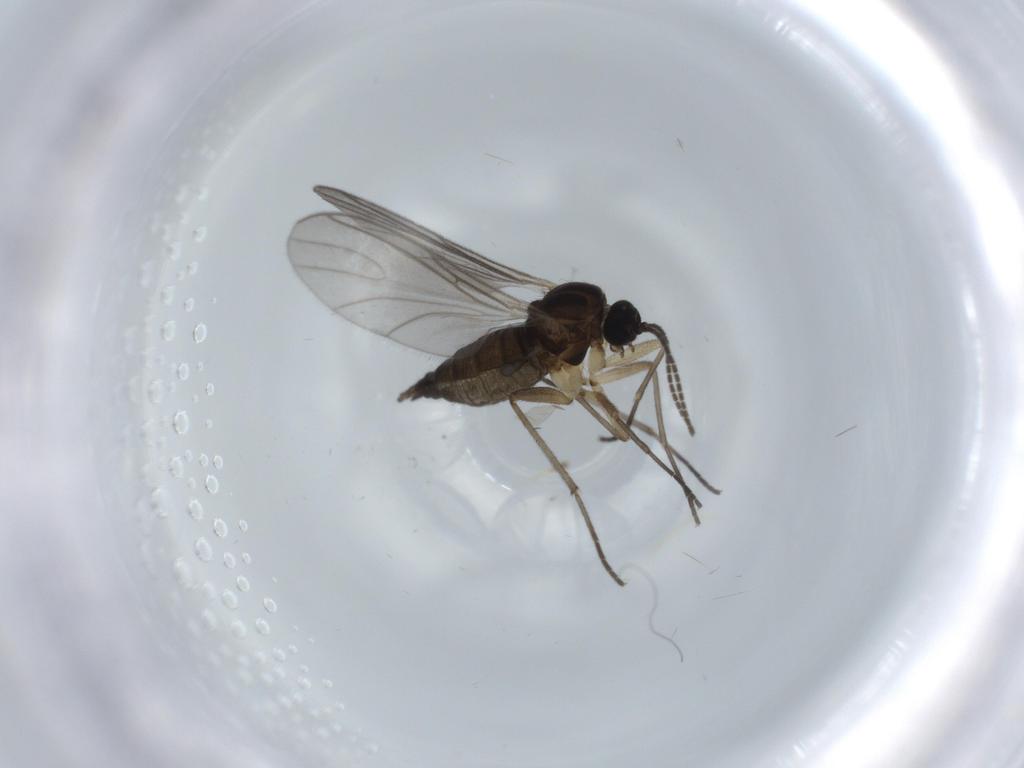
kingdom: Animalia
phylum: Arthropoda
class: Insecta
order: Diptera
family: Sciaridae
